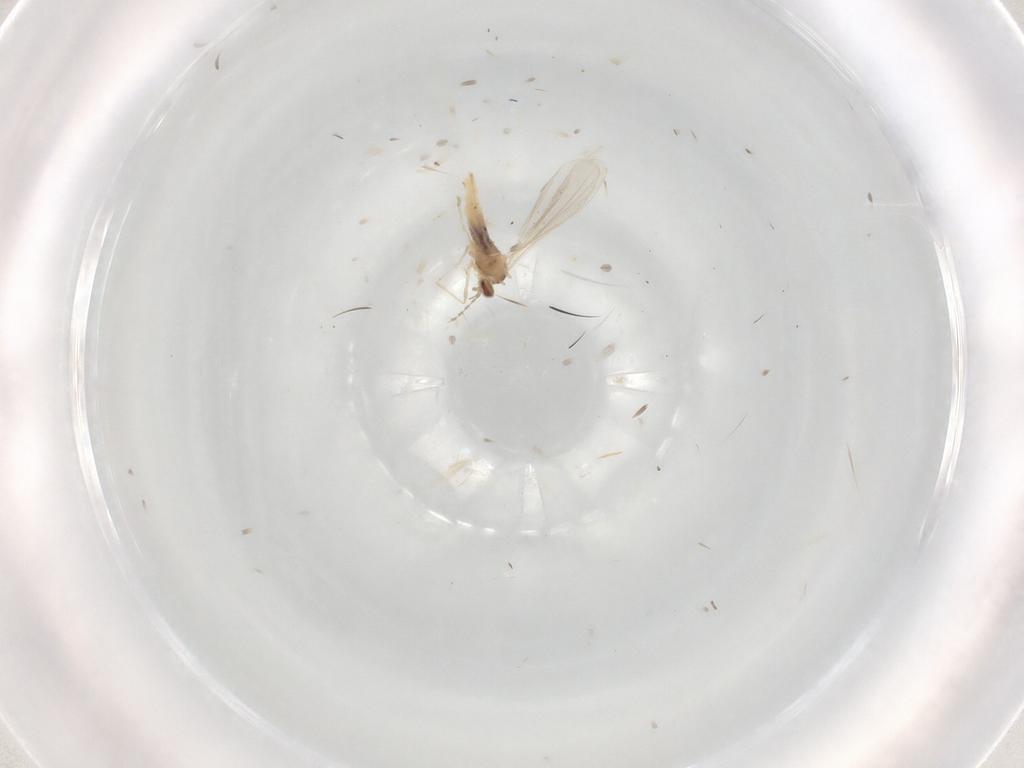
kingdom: Animalia
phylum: Arthropoda
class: Insecta
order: Diptera
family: Cecidomyiidae
